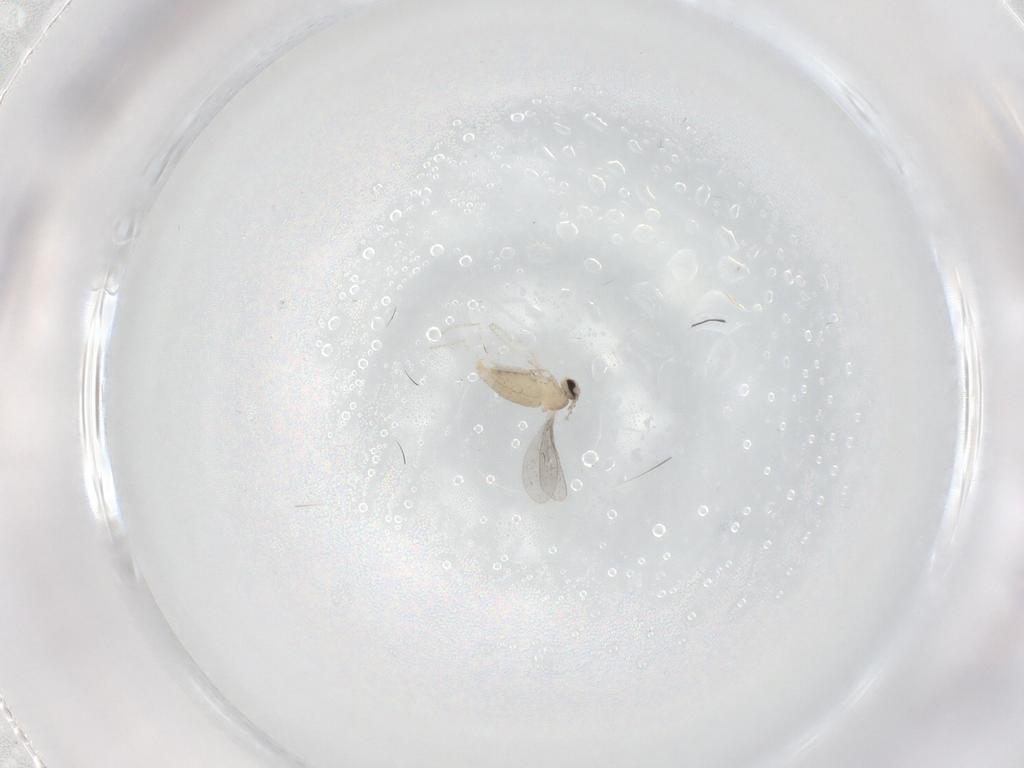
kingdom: Animalia
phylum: Arthropoda
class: Insecta
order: Diptera
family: Cecidomyiidae
